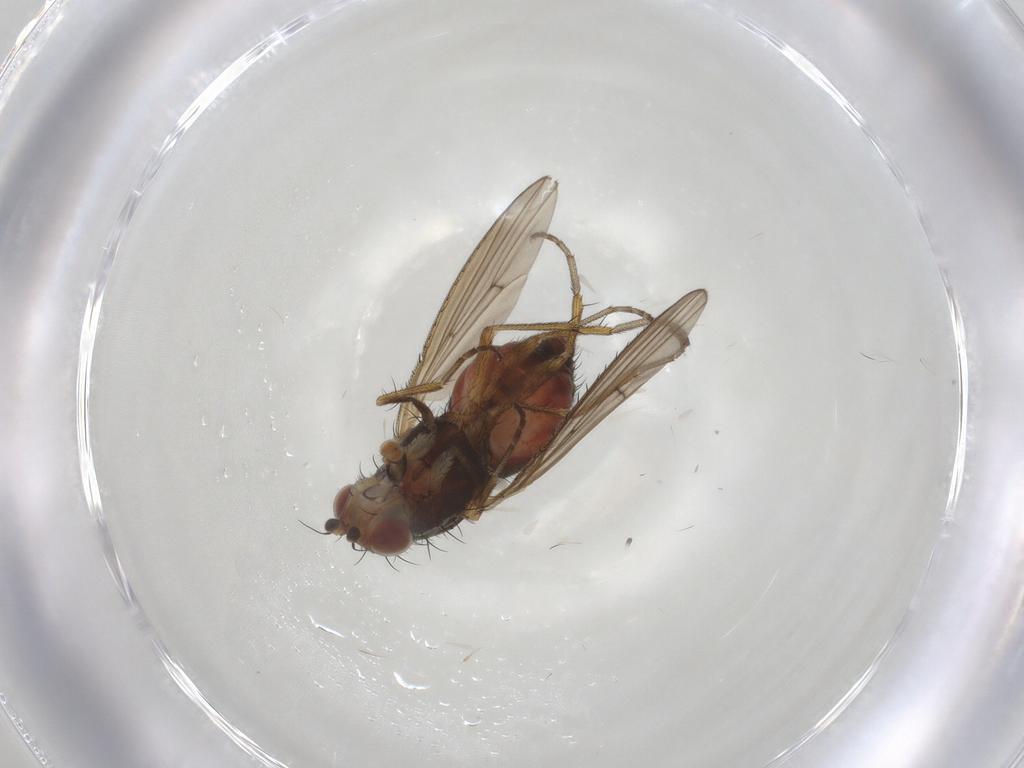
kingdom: Animalia
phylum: Arthropoda
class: Insecta
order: Diptera
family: Heleomyzidae
